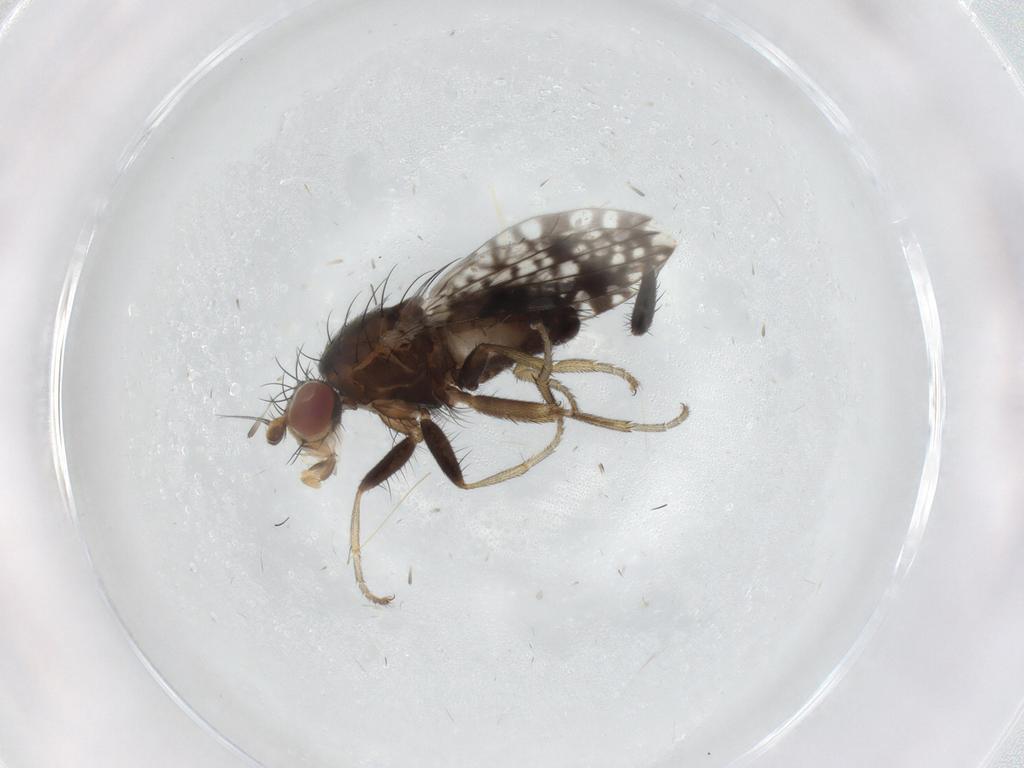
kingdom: Animalia
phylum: Arthropoda
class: Insecta
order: Diptera
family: Tephritidae
